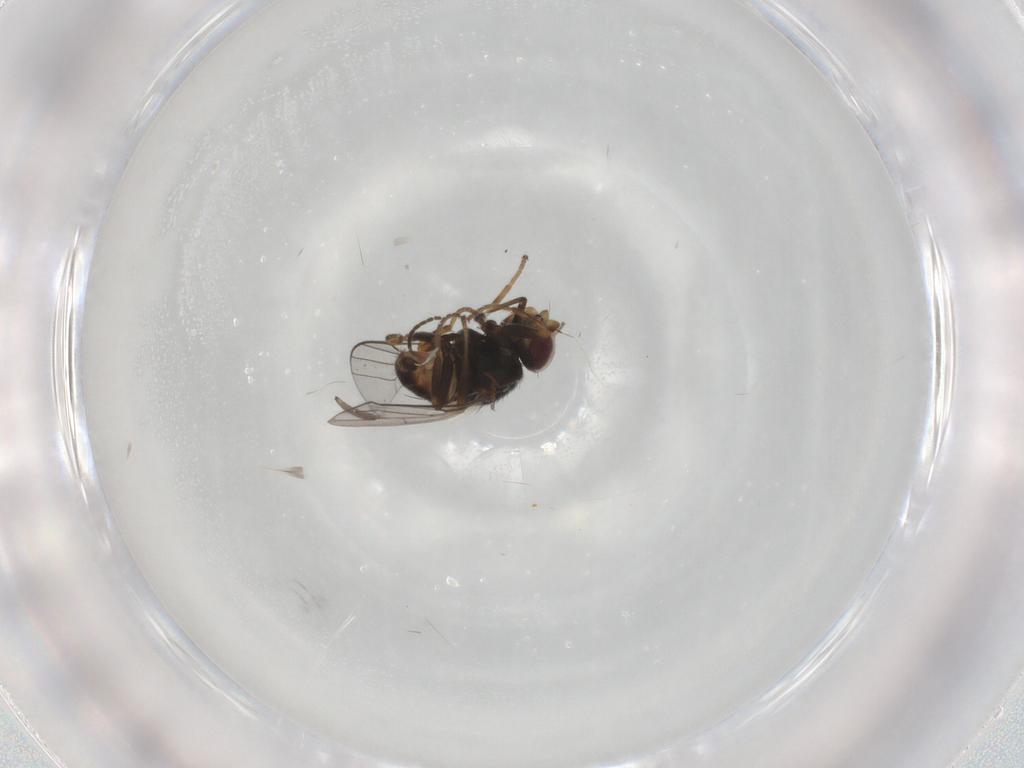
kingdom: Animalia
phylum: Arthropoda
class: Insecta
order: Diptera
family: Chloropidae
